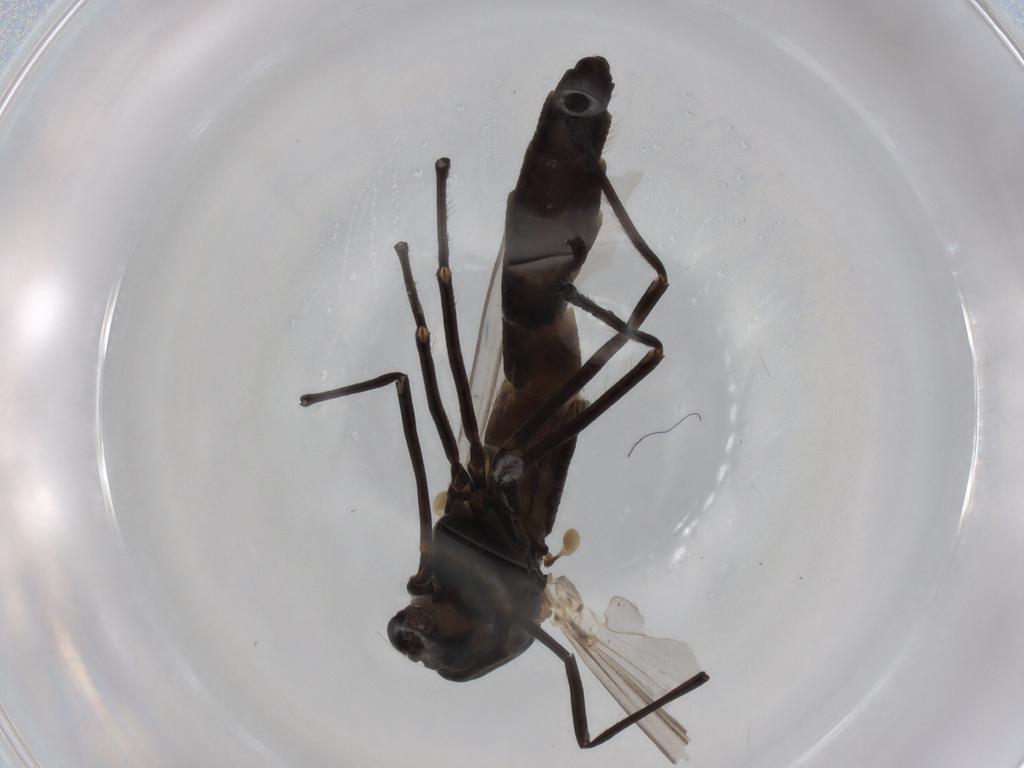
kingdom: Animalia
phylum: Arthropoda
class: Insecta
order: Diptera
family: Chironomidae
